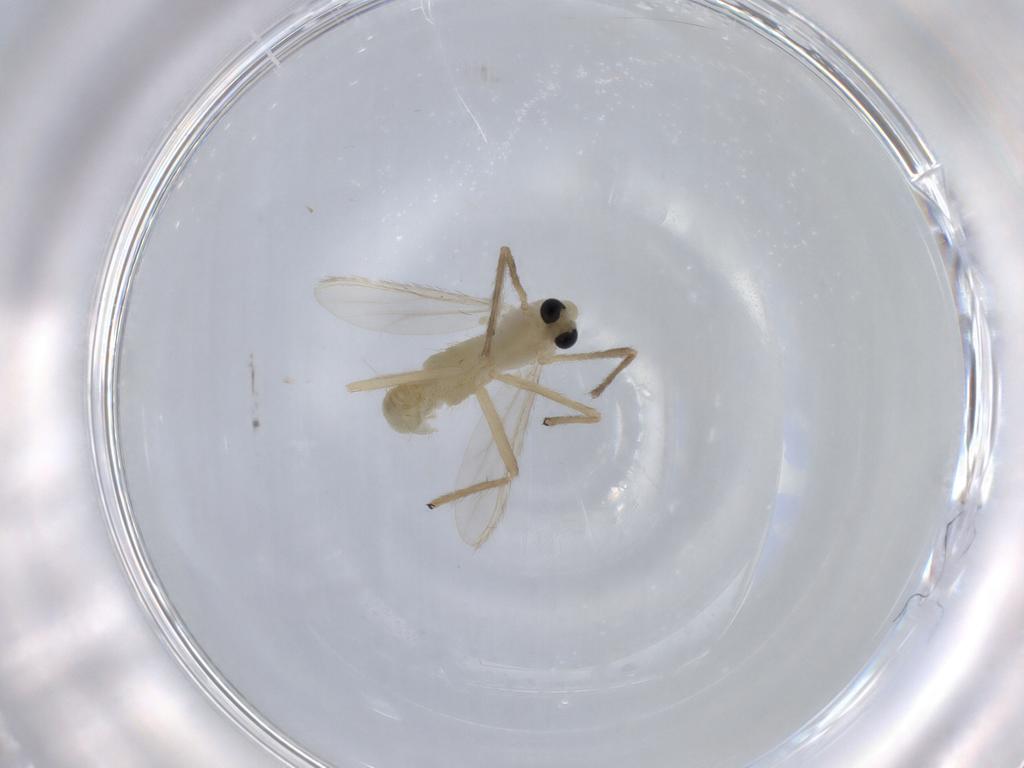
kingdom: Animalia
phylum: Arthropoda
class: Insecta
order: Diptera
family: Chironomidae
